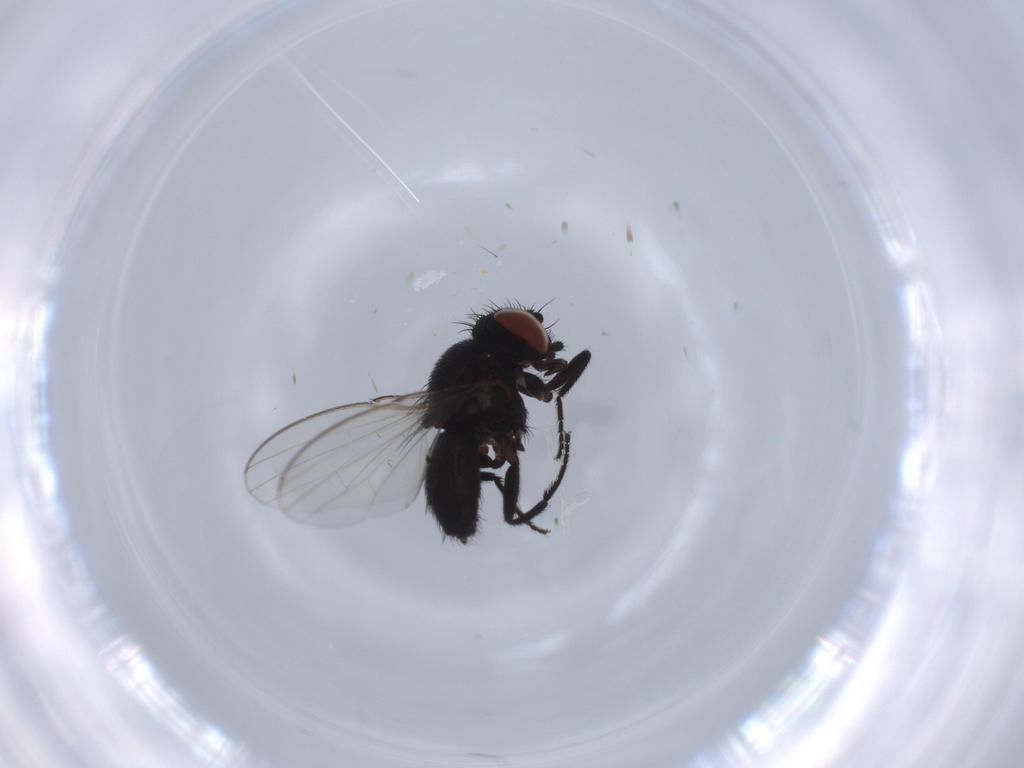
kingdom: Animalia
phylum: Arthropoda
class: Insecta
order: Diptera
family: Milichiidae
